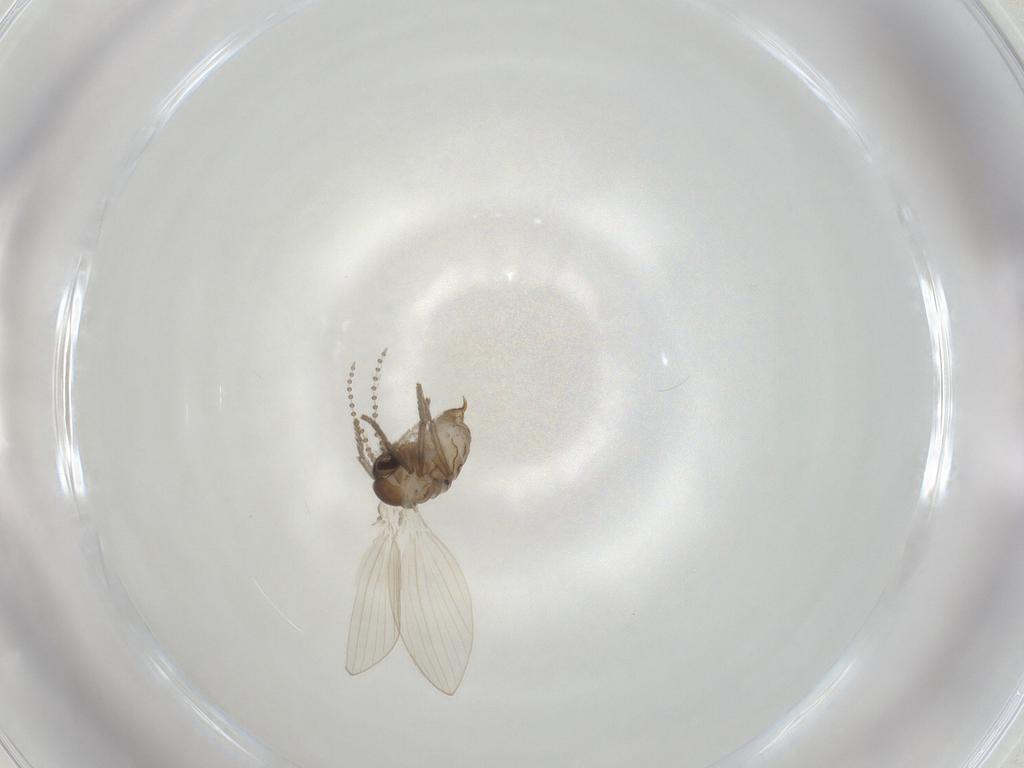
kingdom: Animalia
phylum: Arthropoda
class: Insecta
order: Diptera
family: Psychodidae
